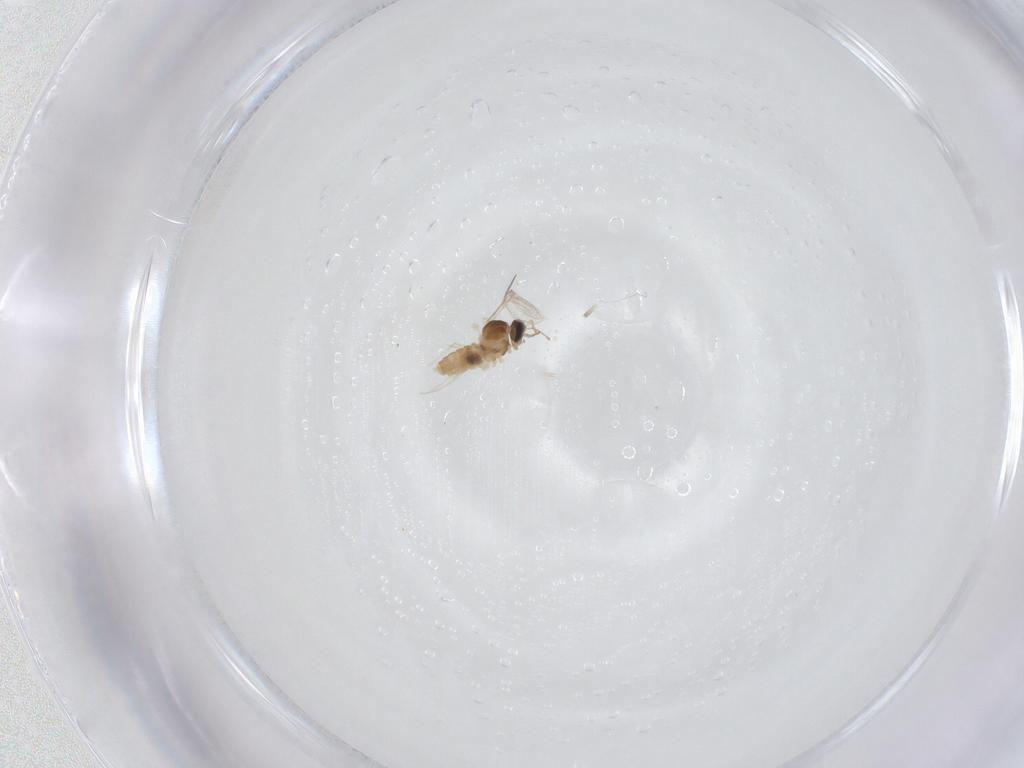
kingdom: Animalia
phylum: Arthropoda
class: Insecta
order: Diptera
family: Cecidomyiidae
